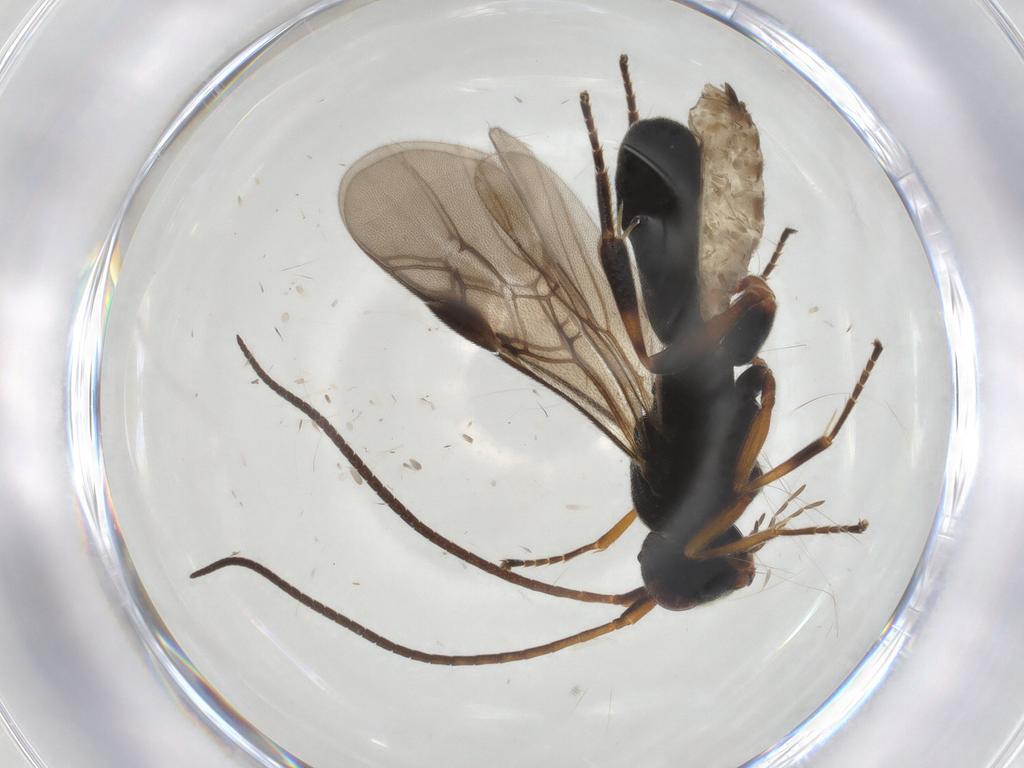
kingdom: Animalia
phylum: Arthropoda
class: Insecta
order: Hymenoptera
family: Braconidae
